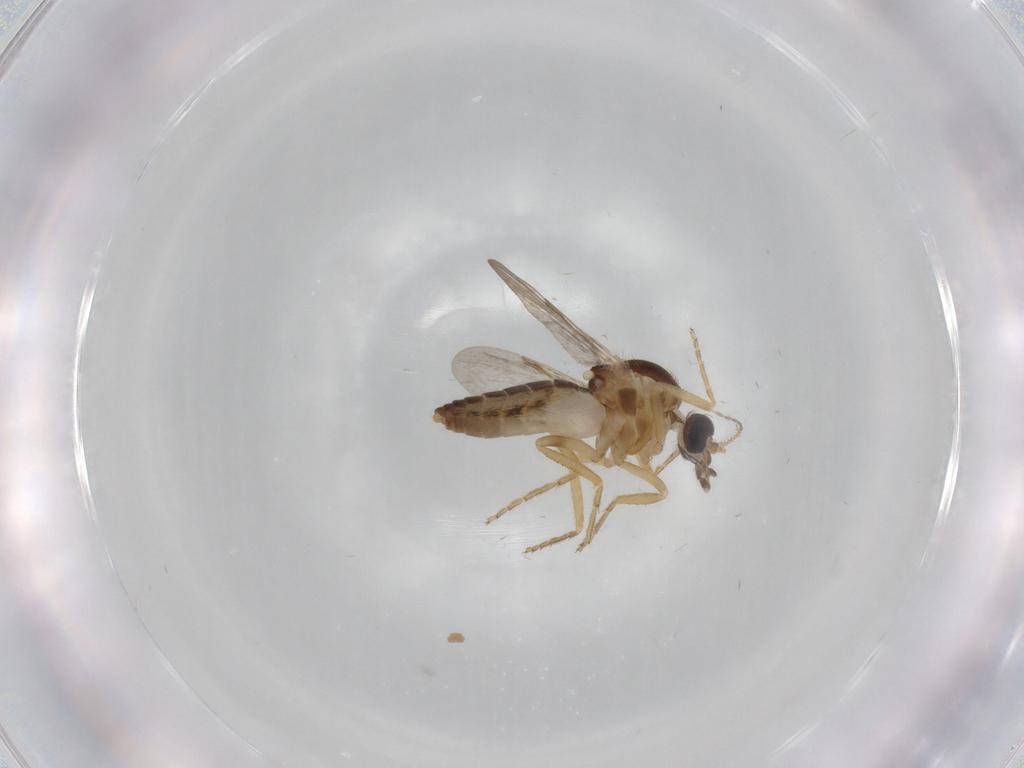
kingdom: Animalia
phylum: Arthropoda
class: Insecta
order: Diptera
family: Ceratopogonidae
